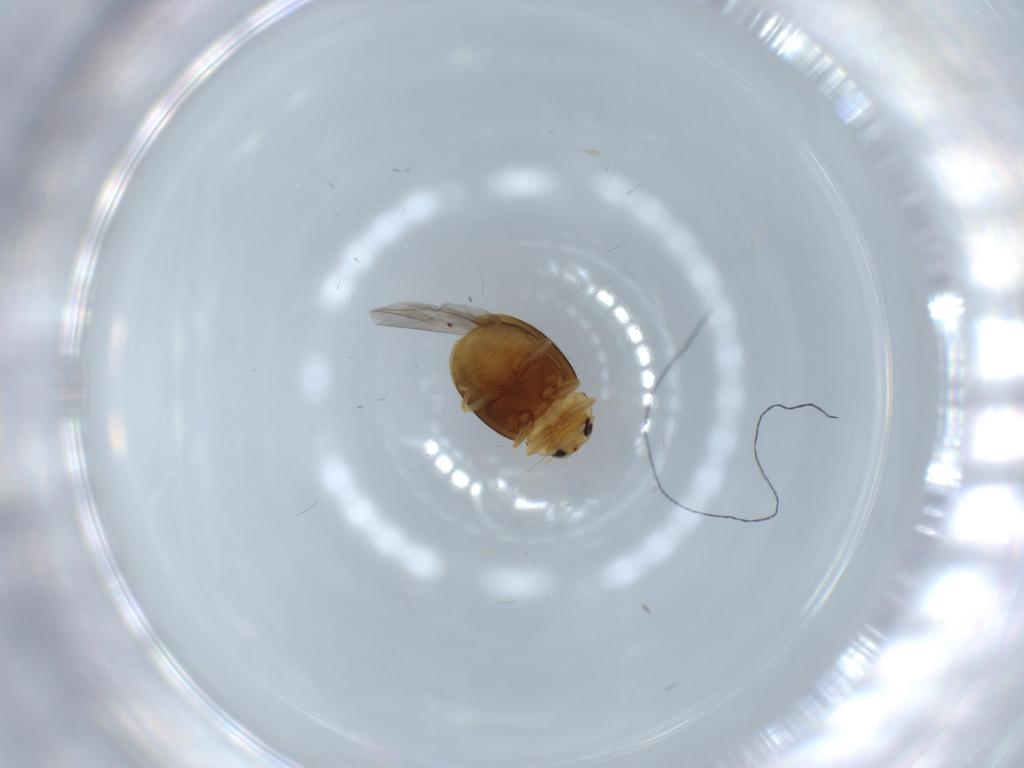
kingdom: Animalia
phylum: Arthropoda
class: Insecta
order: Coleoptera
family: Coccinellidae
